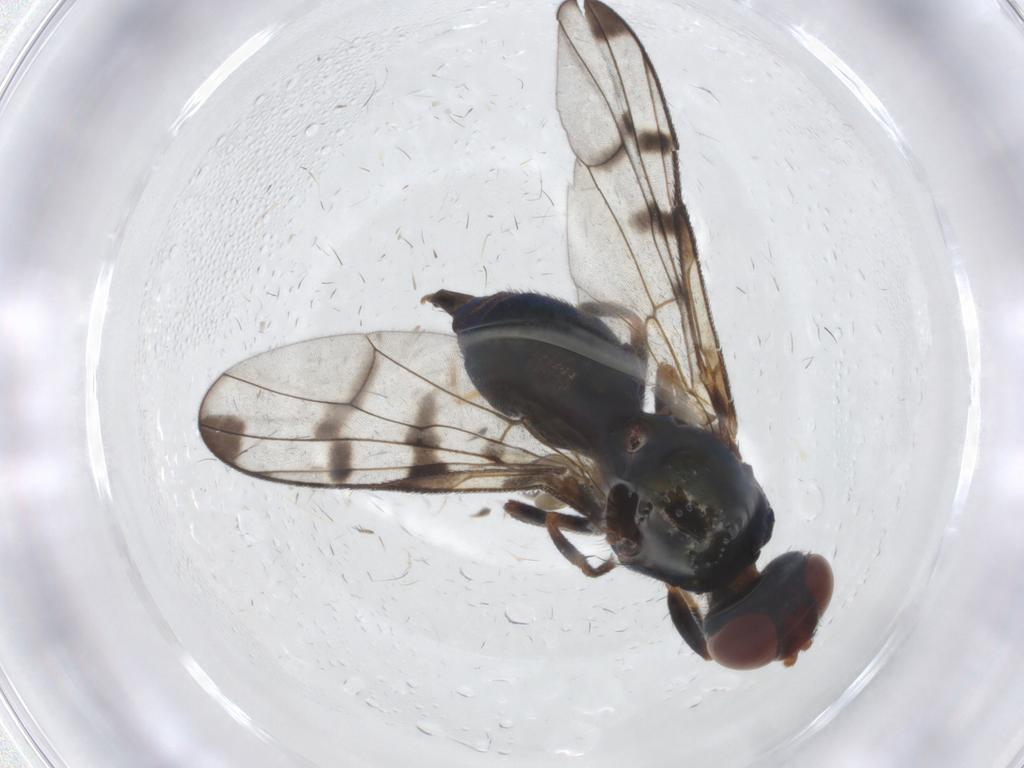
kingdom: Animalia
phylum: Arthropoda
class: Insecta
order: Diptera
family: Platystomatidae
